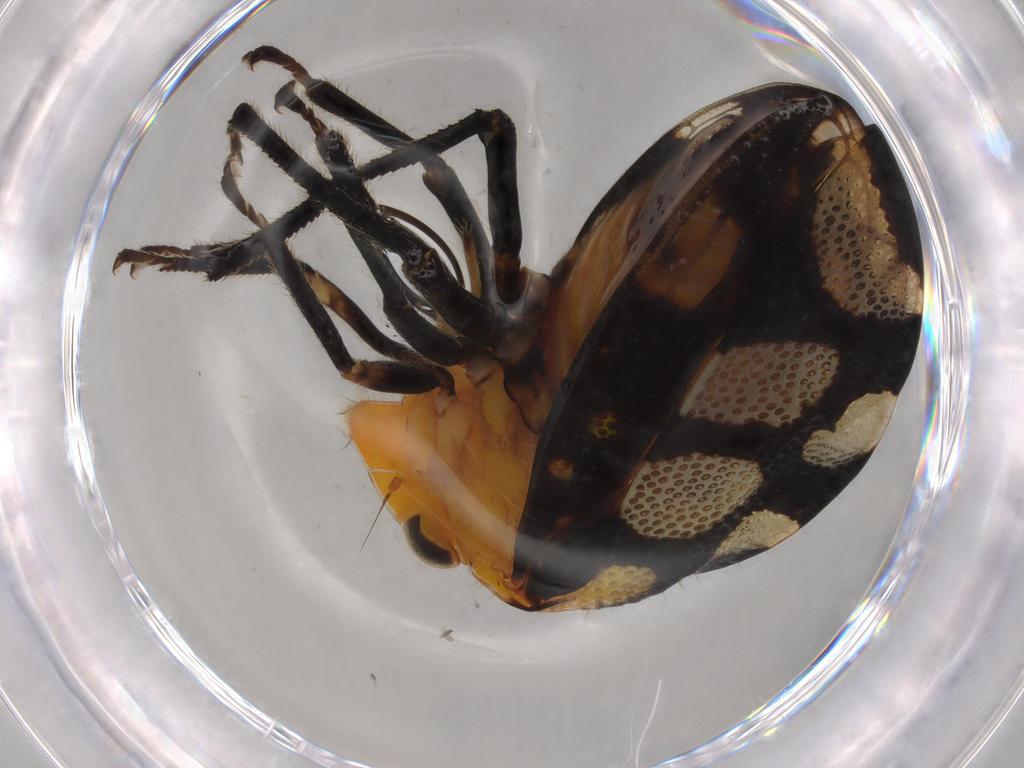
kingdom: Animalia
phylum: Arthropoda
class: Insecta
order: Hemiptera
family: Membracidae
